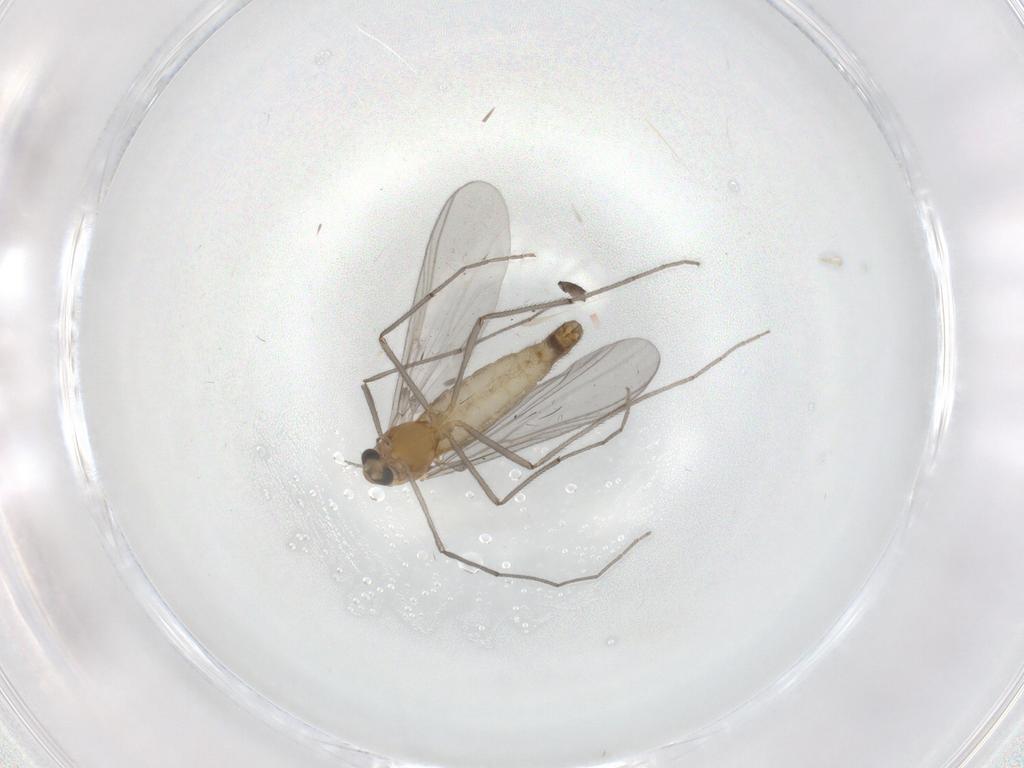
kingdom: Animalia
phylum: Arthropoda
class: Insecta
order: Diptera
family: Chironomidae
